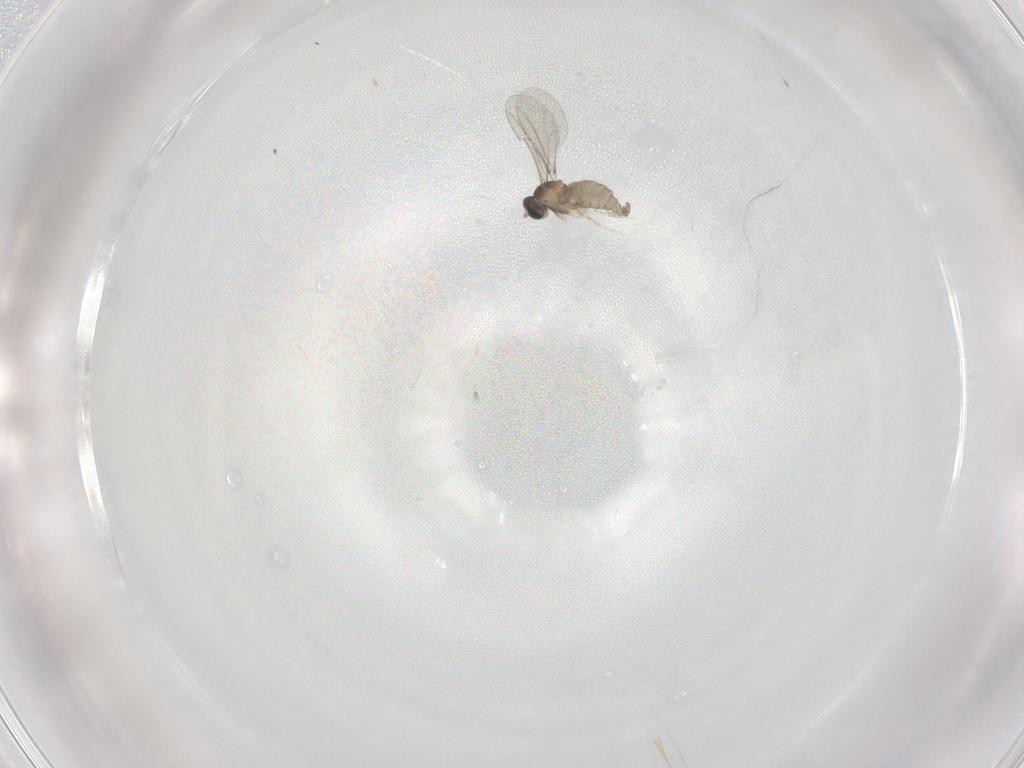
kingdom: Animalia
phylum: Arthropoda
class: Insecta
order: Diptera
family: Cecidomyiidae
